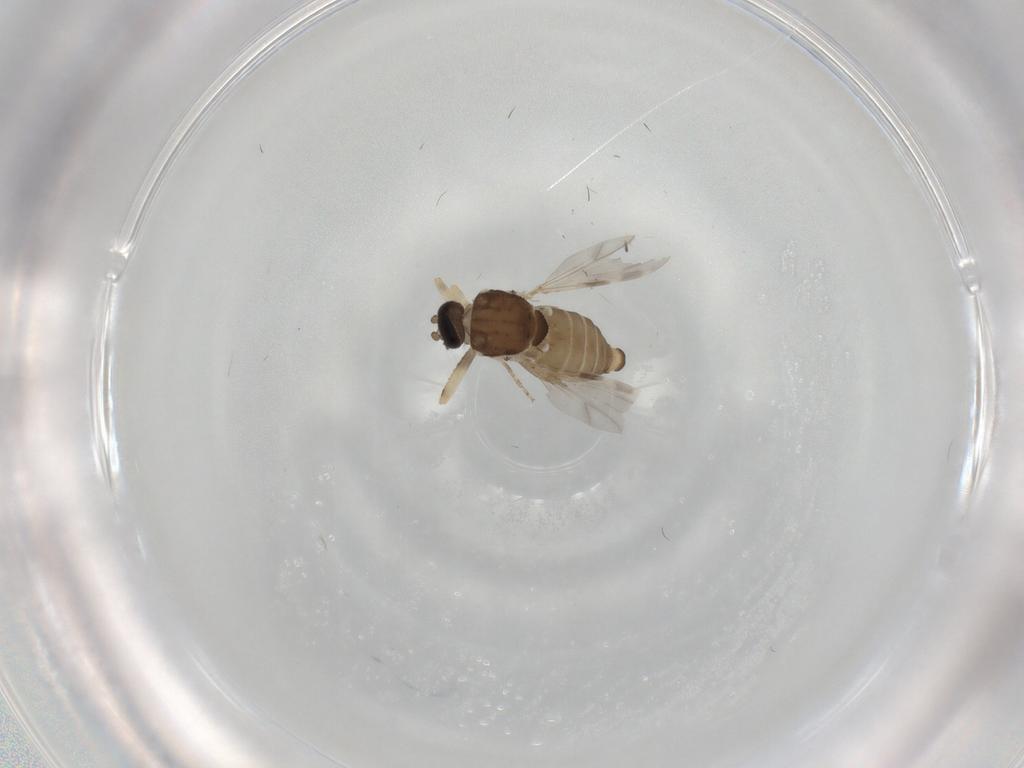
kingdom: Animalia
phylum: Arthropoda
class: Insecta
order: Diptera
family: Ceratopogonidae
